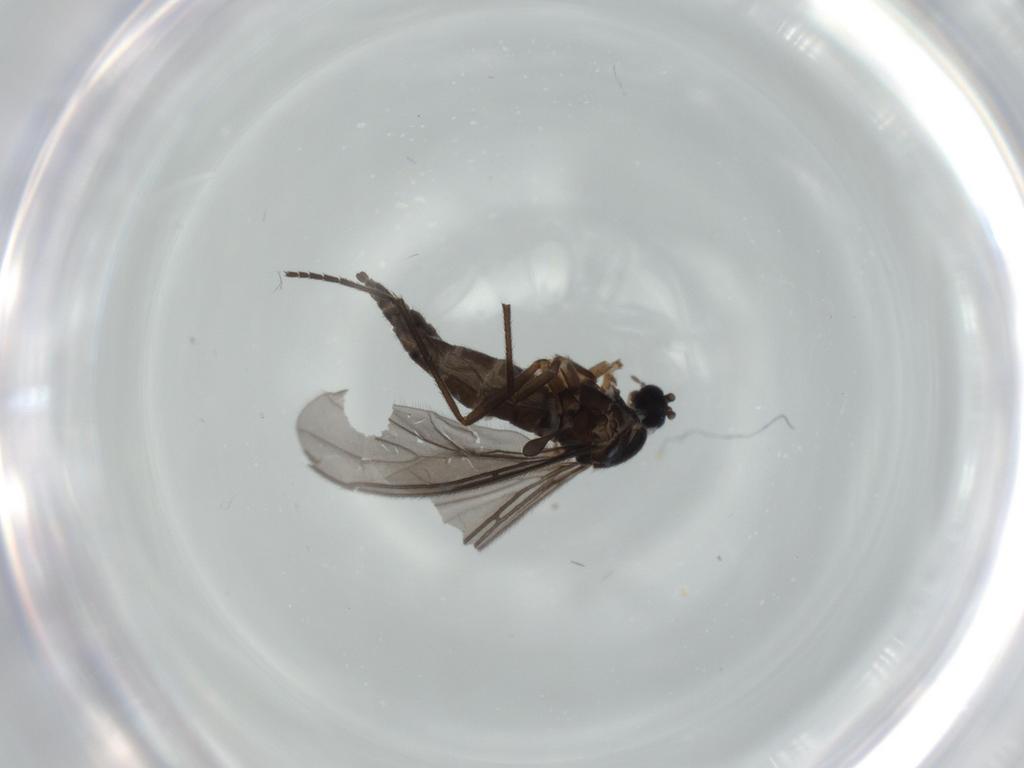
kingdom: Animalia
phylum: Arthropoda
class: Insecta
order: Diptera
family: Sciaridae
